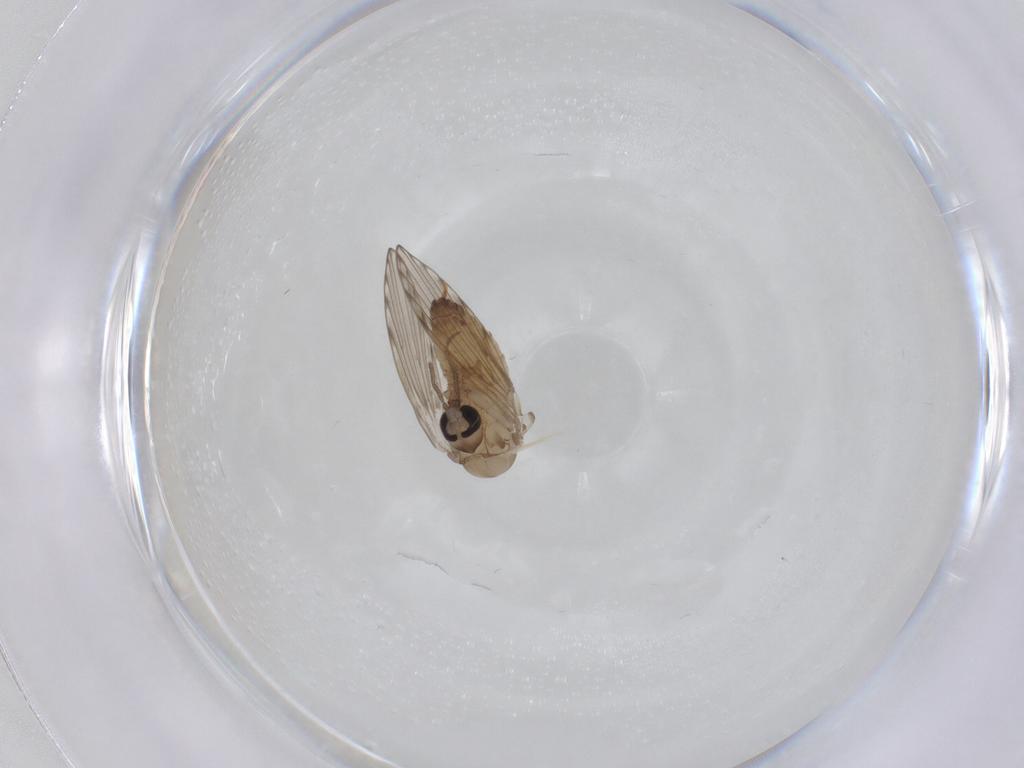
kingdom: Animalia
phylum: Arthropoda
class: Insecta
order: Diptera
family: Psychodidae
